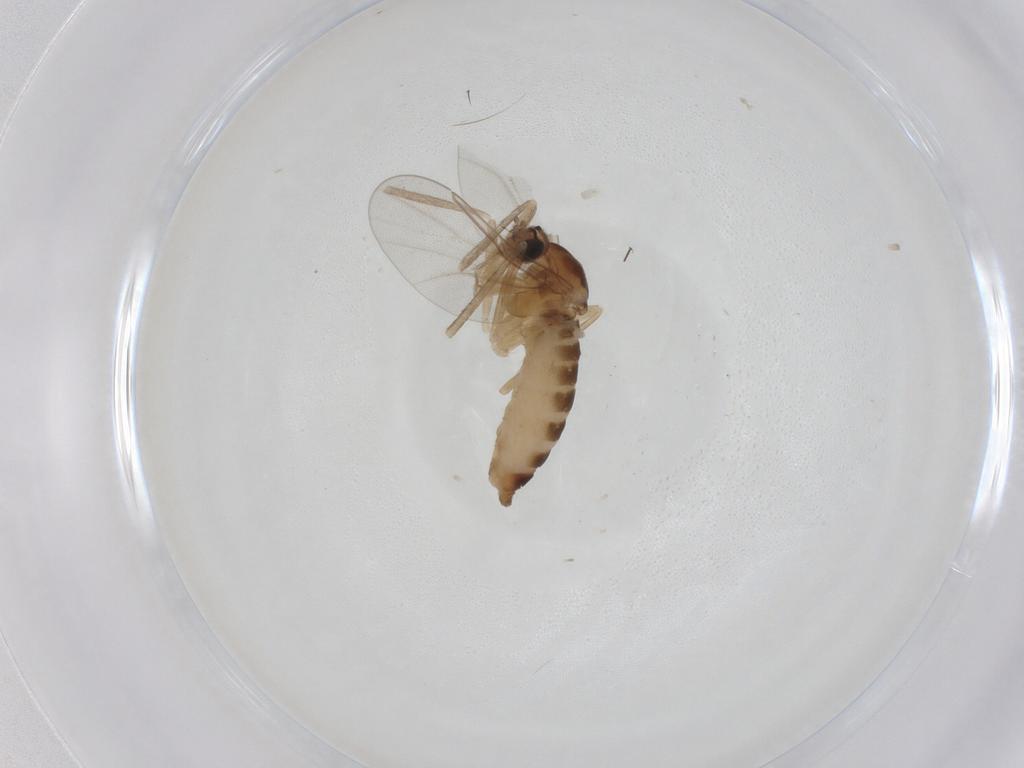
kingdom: Animalia
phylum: Arthropoda
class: Insecta
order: Diptera
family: Cecidomyiidae
